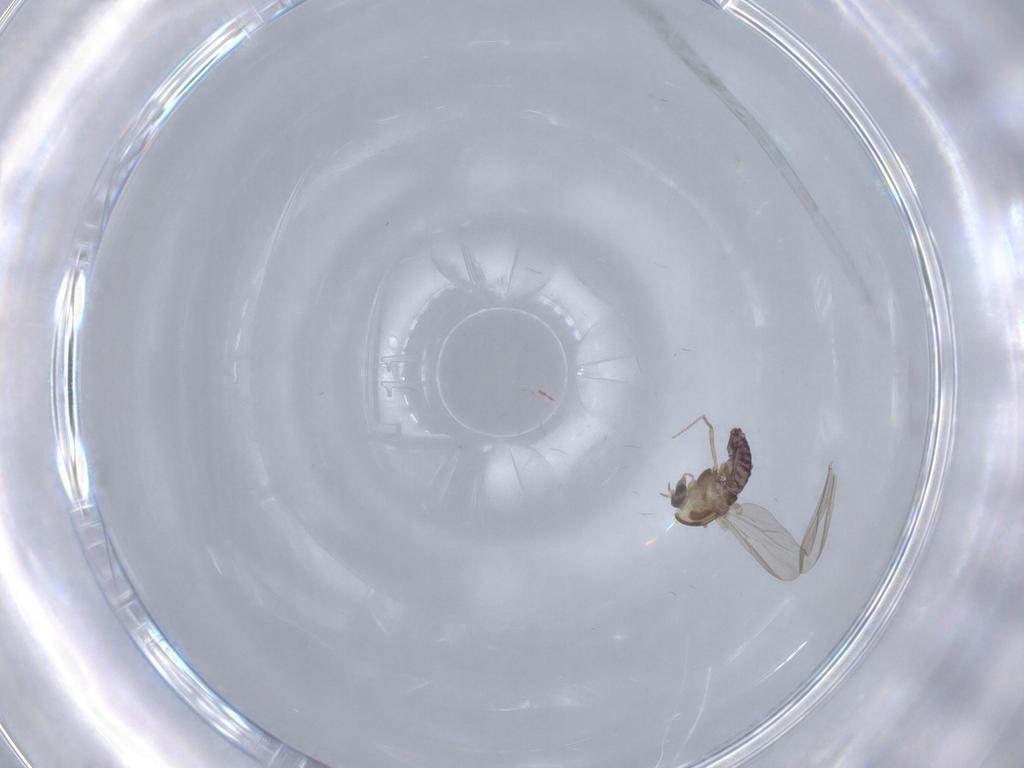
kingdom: Animalia
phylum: Arthropoda
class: Insecta
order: Diptera
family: Chironomidae
